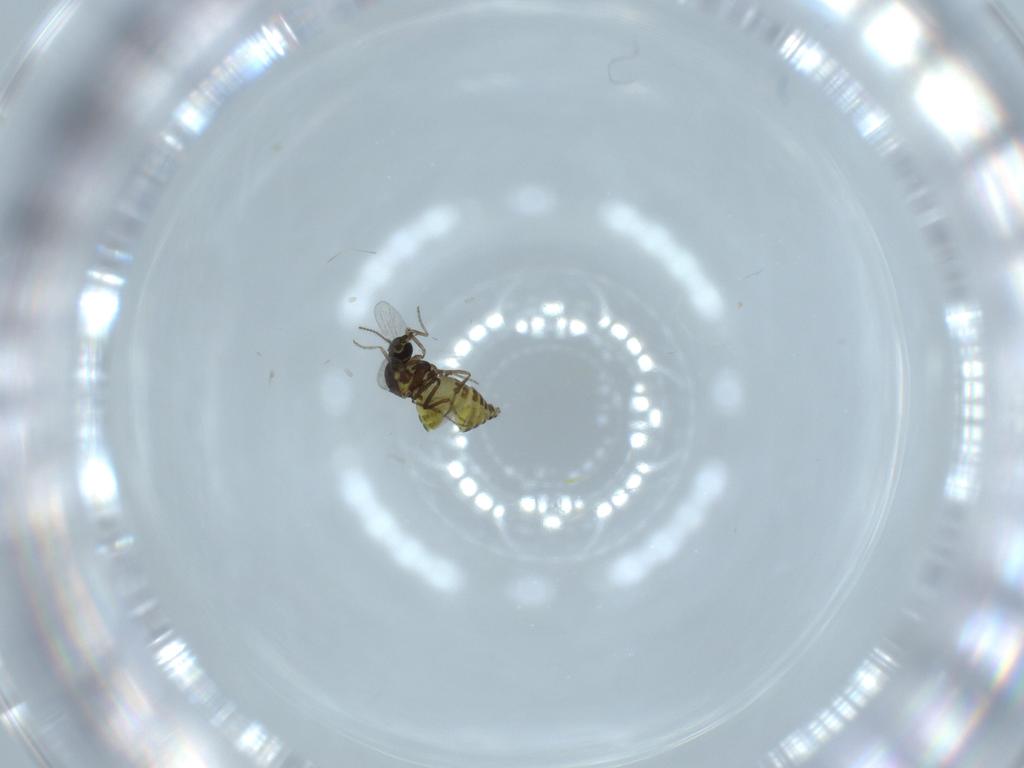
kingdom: Animalia
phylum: Arthropoda
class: Insecta
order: Diptera
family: Ceratopogonidae
